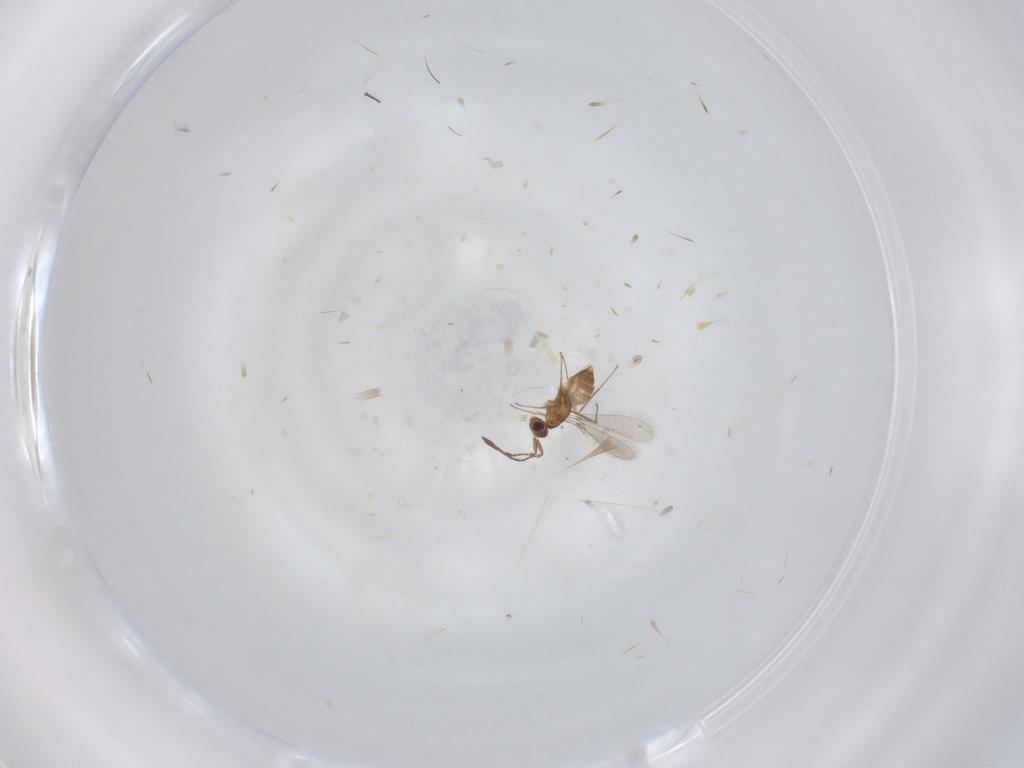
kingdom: Animalia
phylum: Arthropoda
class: Insecta
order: Hymenoptera
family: Mymaridae
